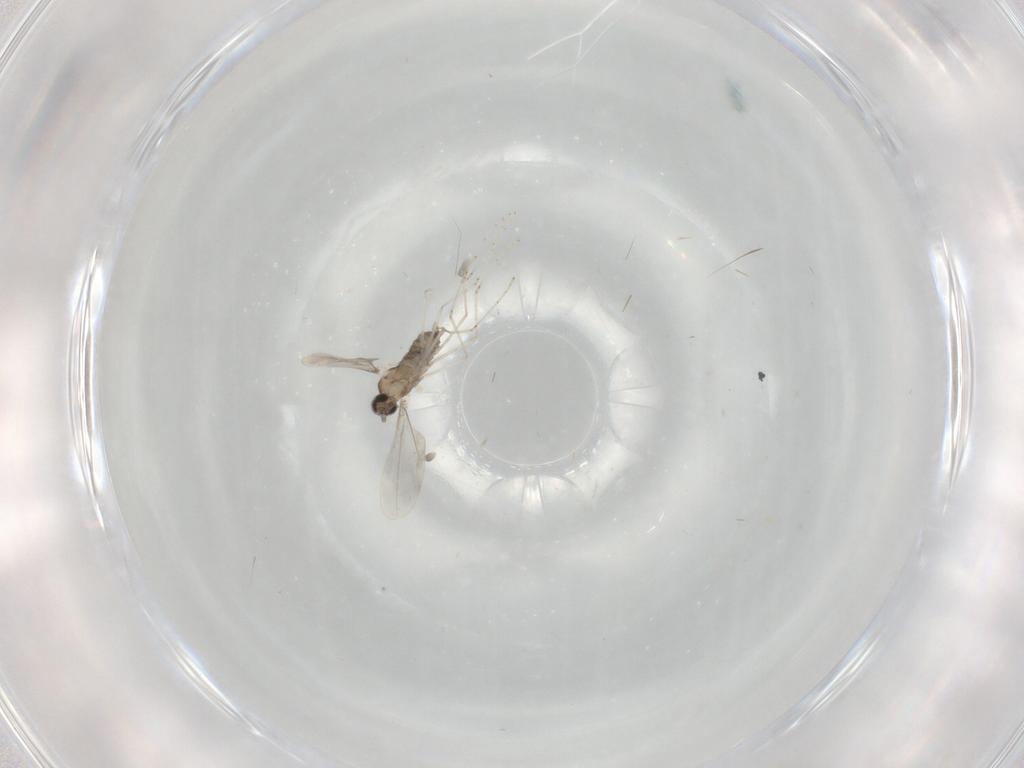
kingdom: Animalia
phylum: Arthropoda
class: Insecta
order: Diptera
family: Cecidomyiidae
